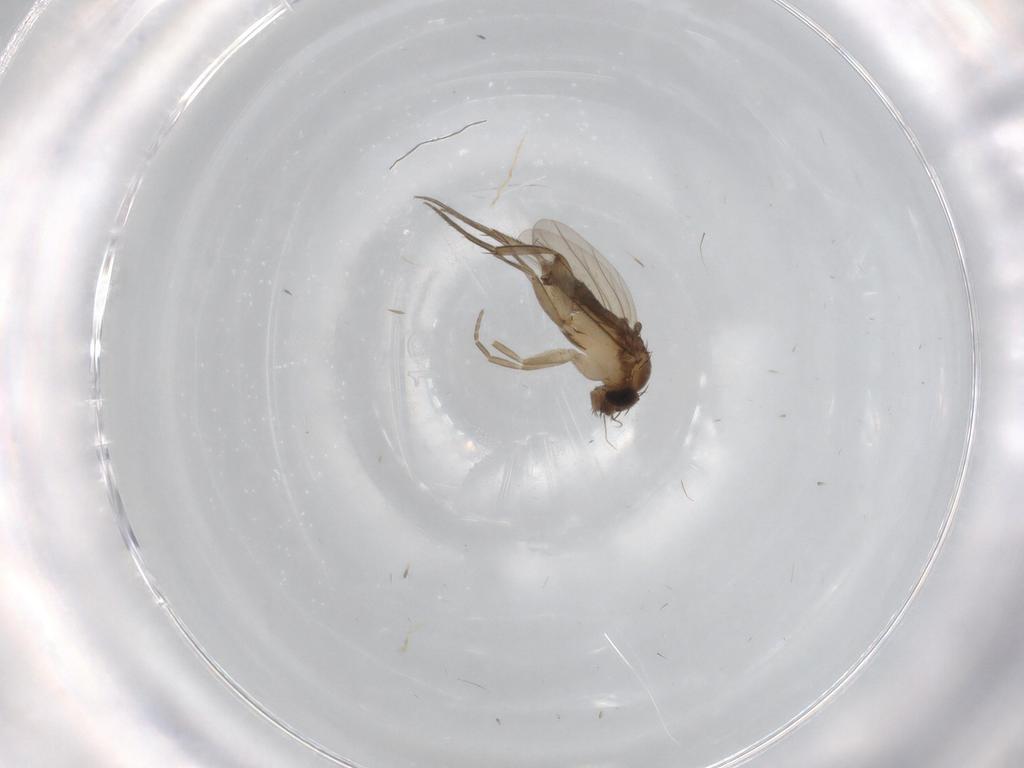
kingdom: Animalia
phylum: Arthropoda
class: Insecta
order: Diptera
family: Phoridae
